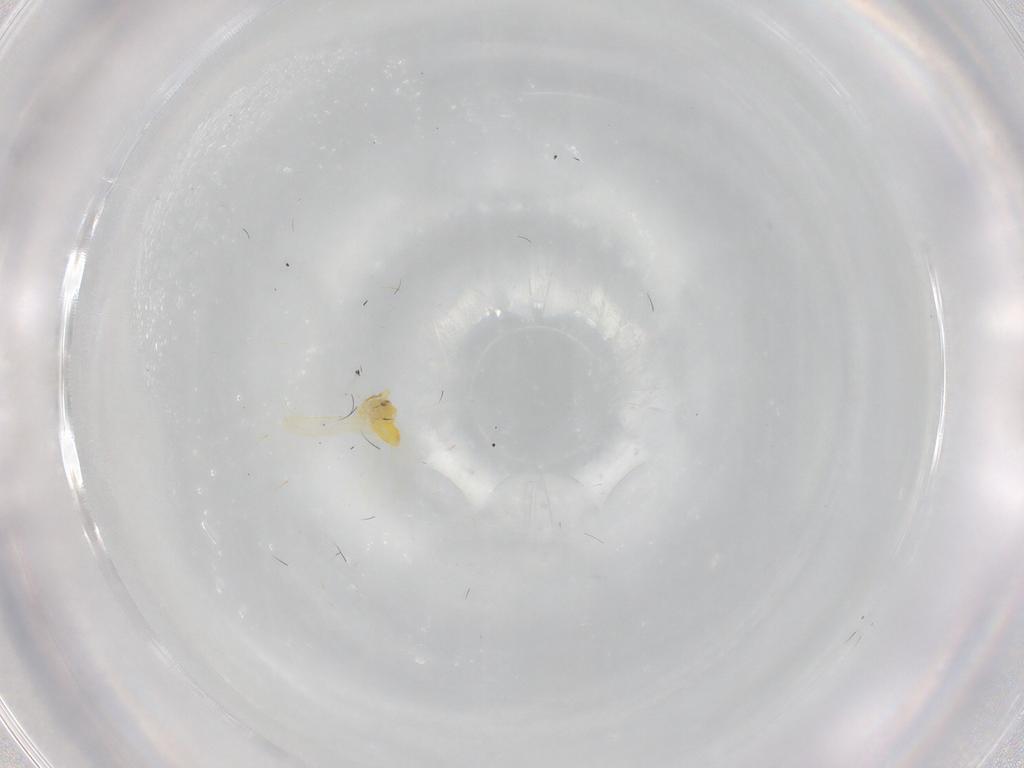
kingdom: Animalia
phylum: Arthropoda
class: Insecta
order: Hemiptera
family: Aleyrodidae
